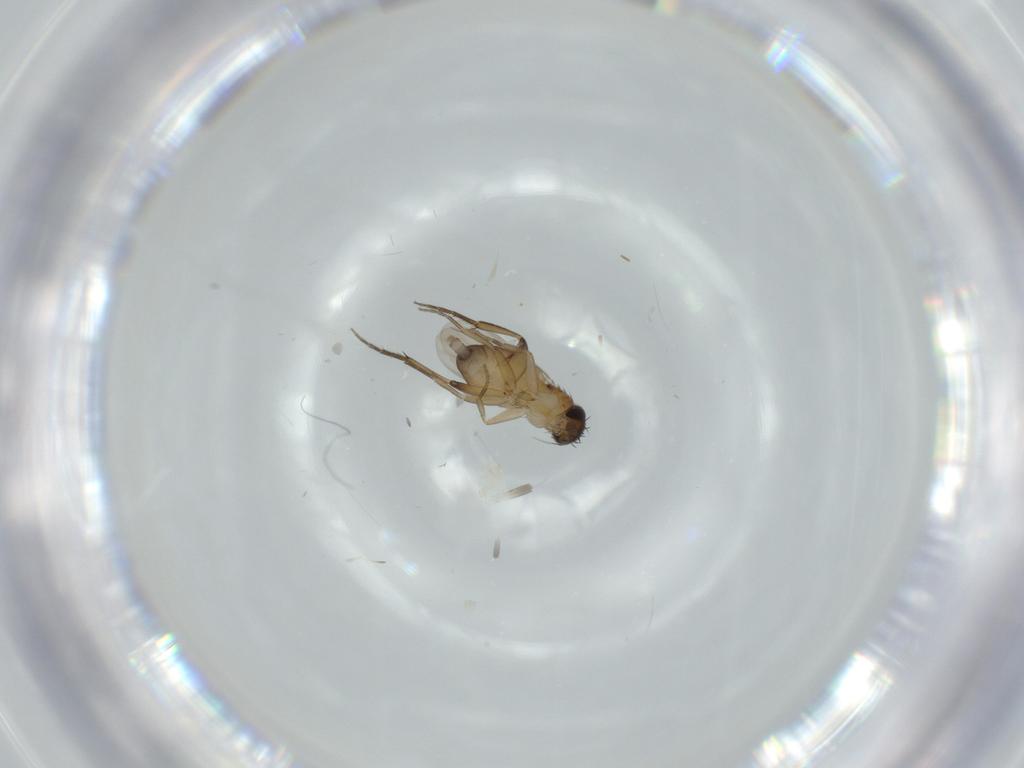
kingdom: Animalia
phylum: Arthropoda
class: Insecta
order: Diptera
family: Phoridae
